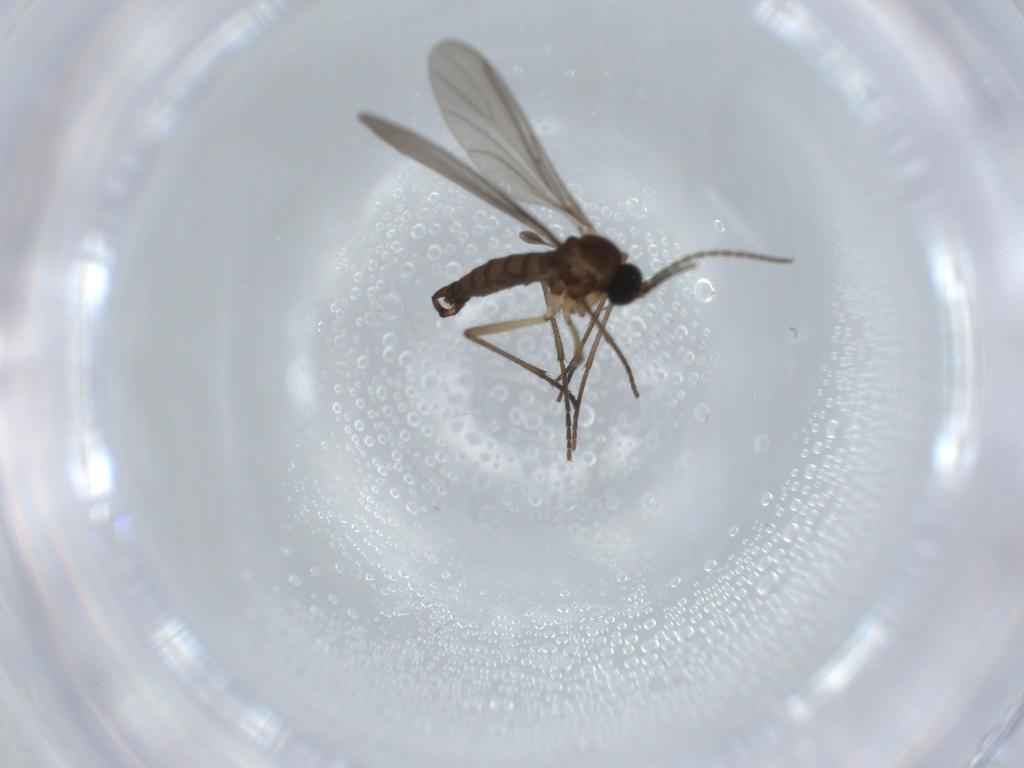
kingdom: Animalia
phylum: Arthropoda
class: Insecta
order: Diptera
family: Sciaridae
